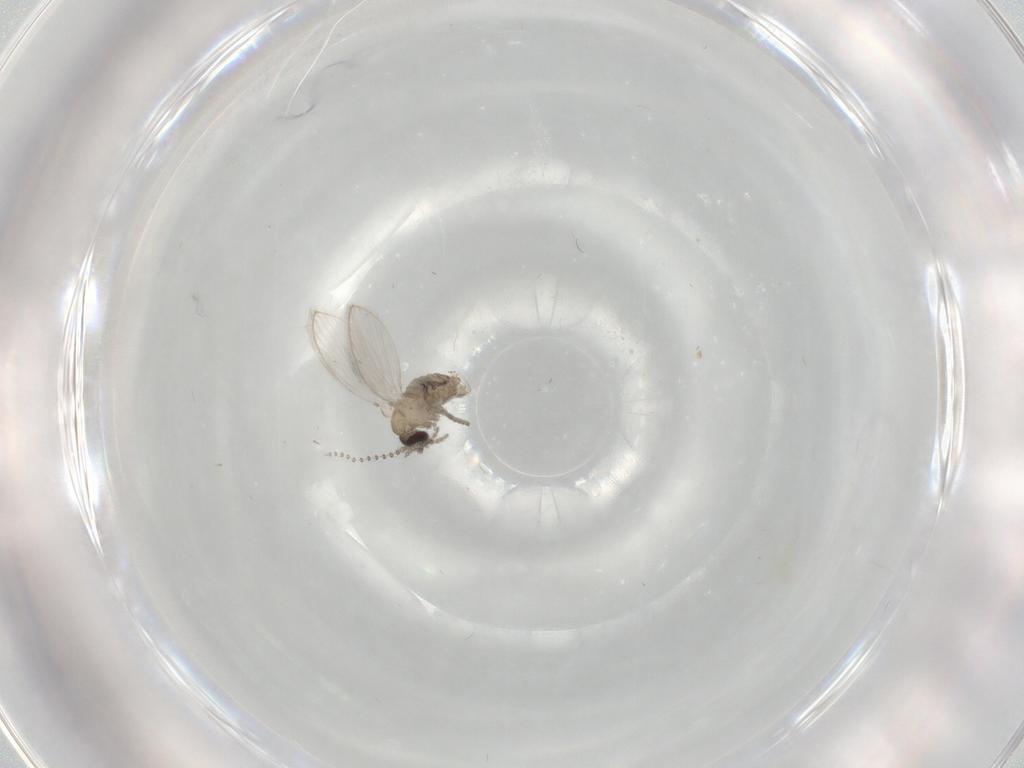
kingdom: Animalia
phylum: Arthropoda
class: Insecta
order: Diptera
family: Psychodidae
